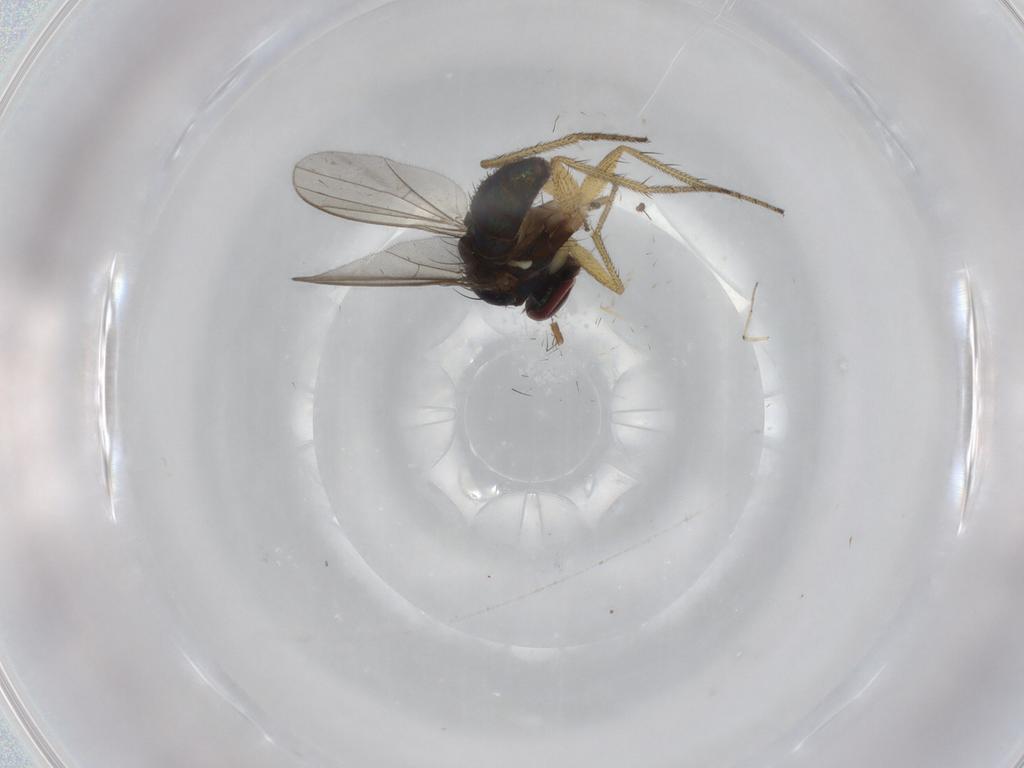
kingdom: Animalia
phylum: Arthropoda
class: Insecta
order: Diptera
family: Dolichopodidae
